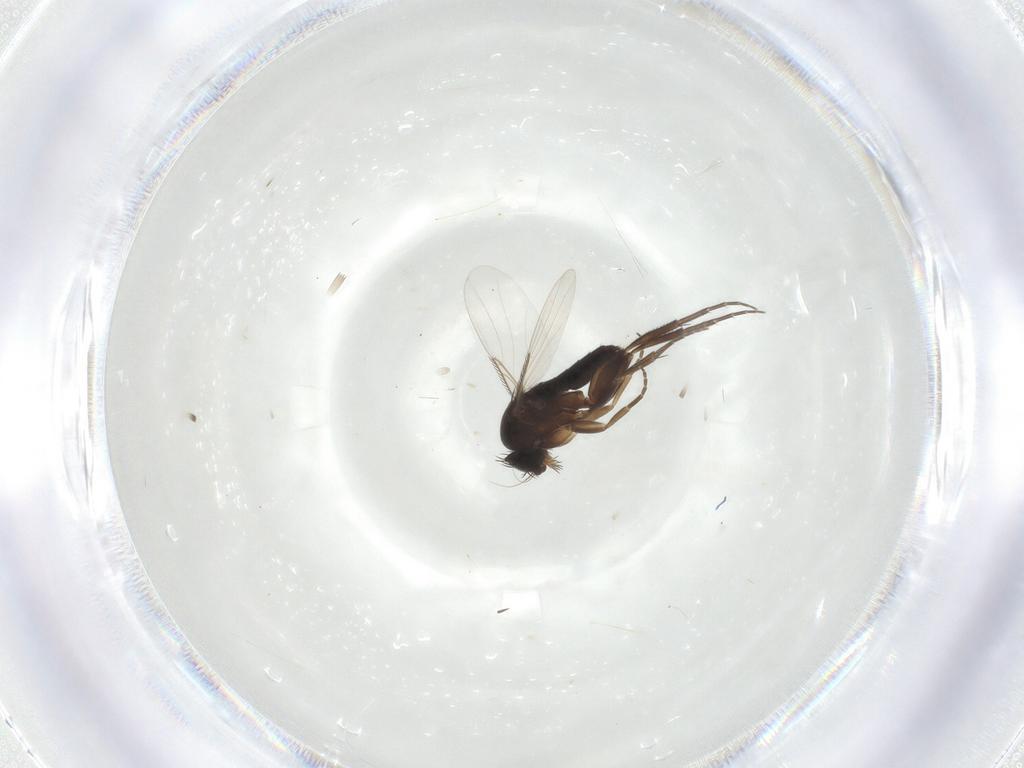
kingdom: Animalia
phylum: Arthropoda
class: Insecta
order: Diptera
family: Phoridae
